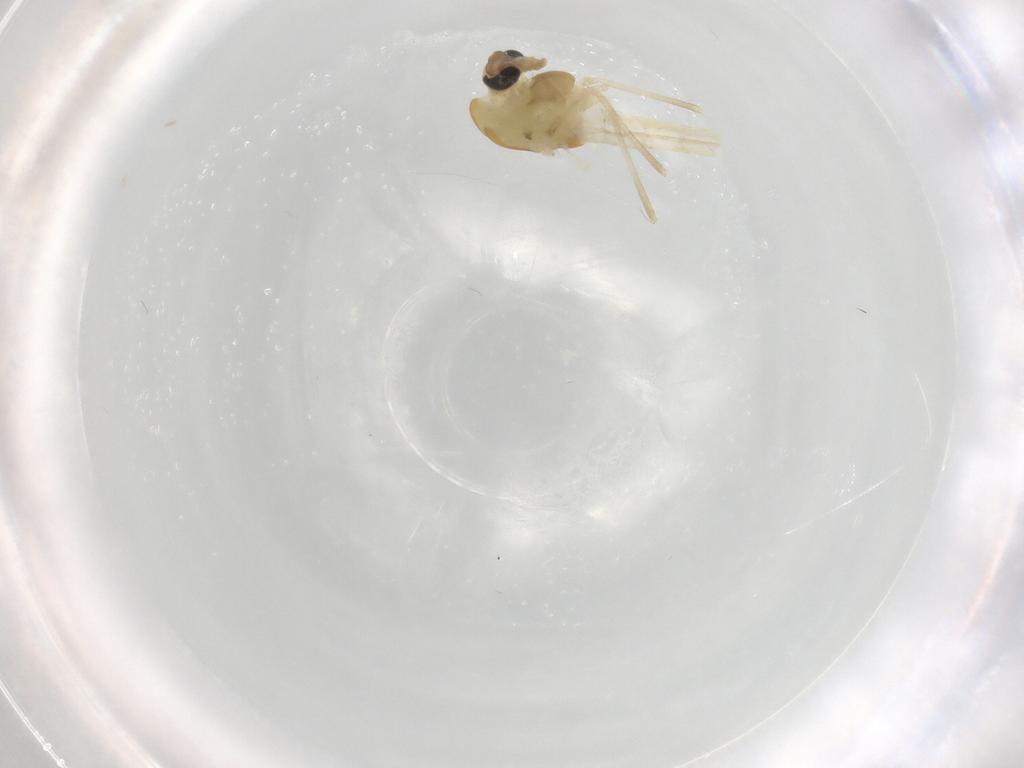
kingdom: Animalia
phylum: Arthropoda
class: Insecta
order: Diptera
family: Chironomidae
